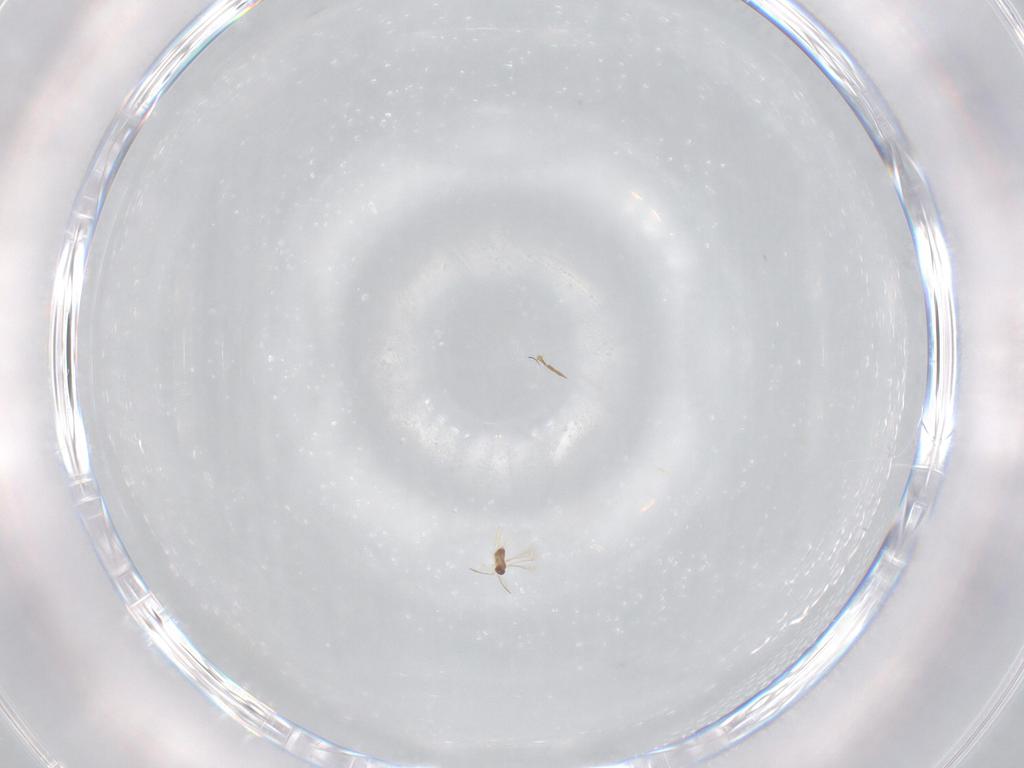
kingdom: Animalia
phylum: Arthropoda
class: Insecta
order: Hymenoptera
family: Mymaridae
